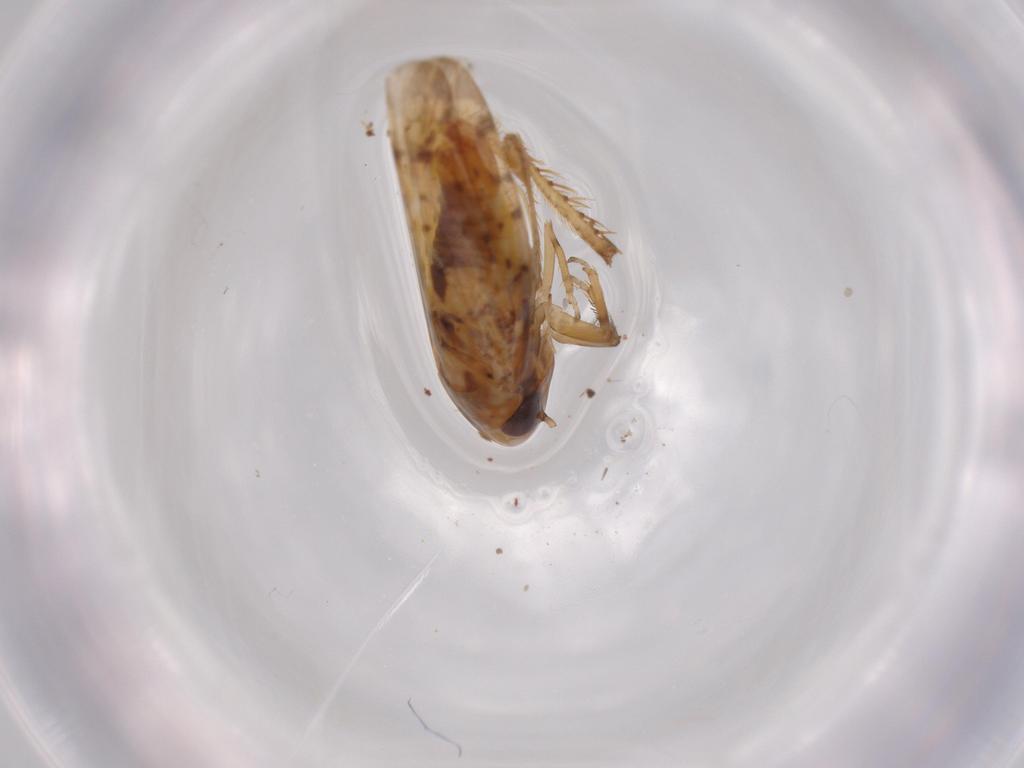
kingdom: Animalia
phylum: Arthropoda
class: Insecta
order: Hemiptera
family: Cicadellidae
